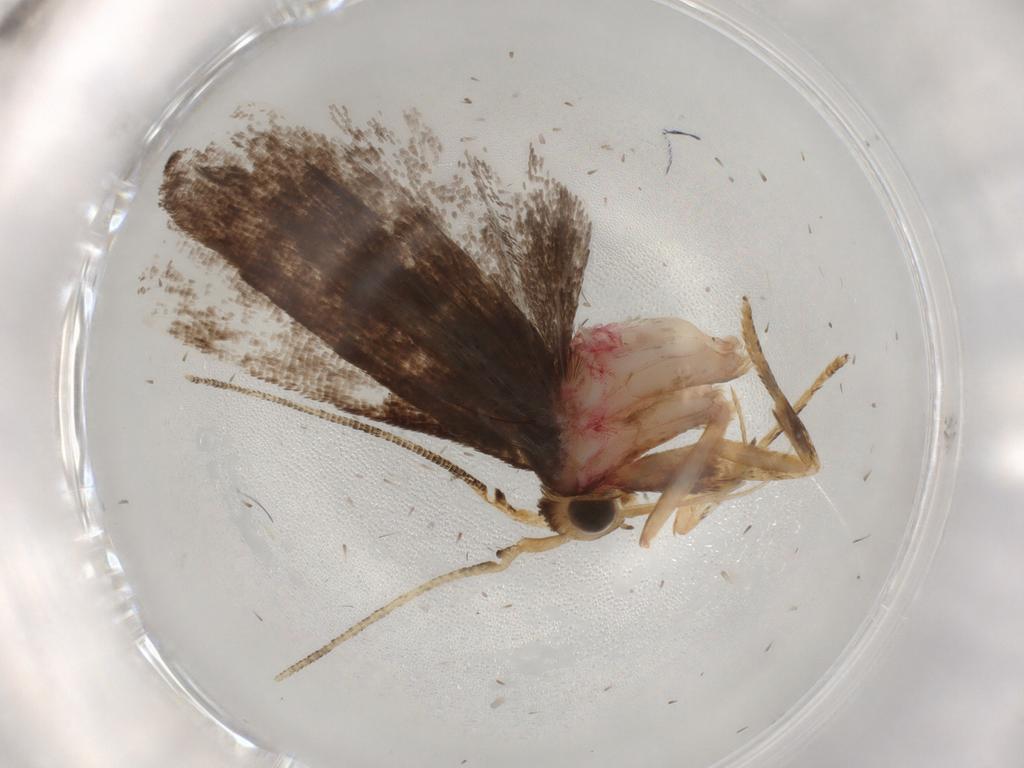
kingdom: Animalia
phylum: Arthropoda
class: Insecta
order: Lepidoptera
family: Autostichidae
